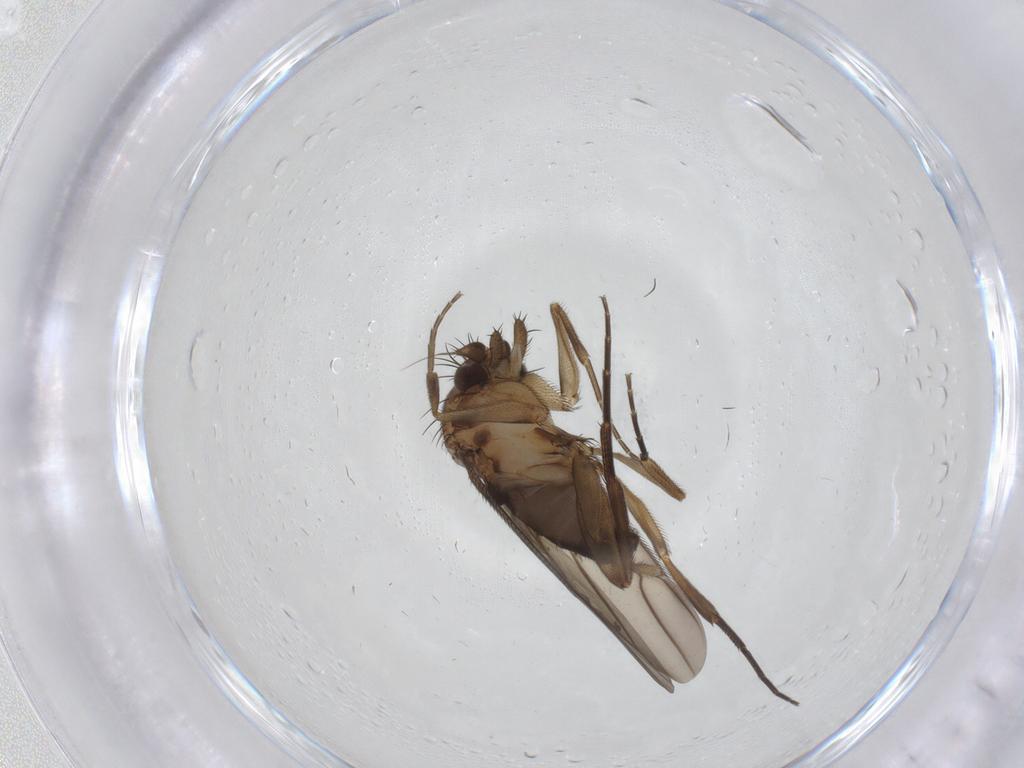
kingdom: Animalia
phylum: Arthropoda
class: Insecta
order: Diptera
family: Phoridae
